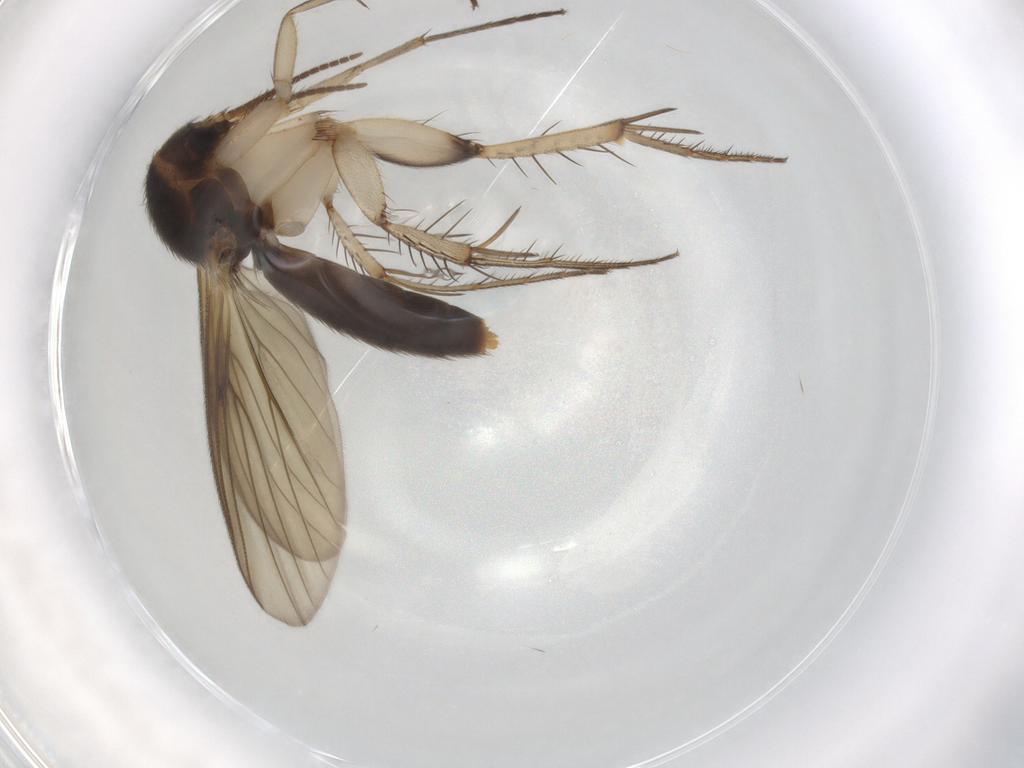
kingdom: Animalia
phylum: Arthropoda
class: Insecta
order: Diptera
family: Mycetophilidae
